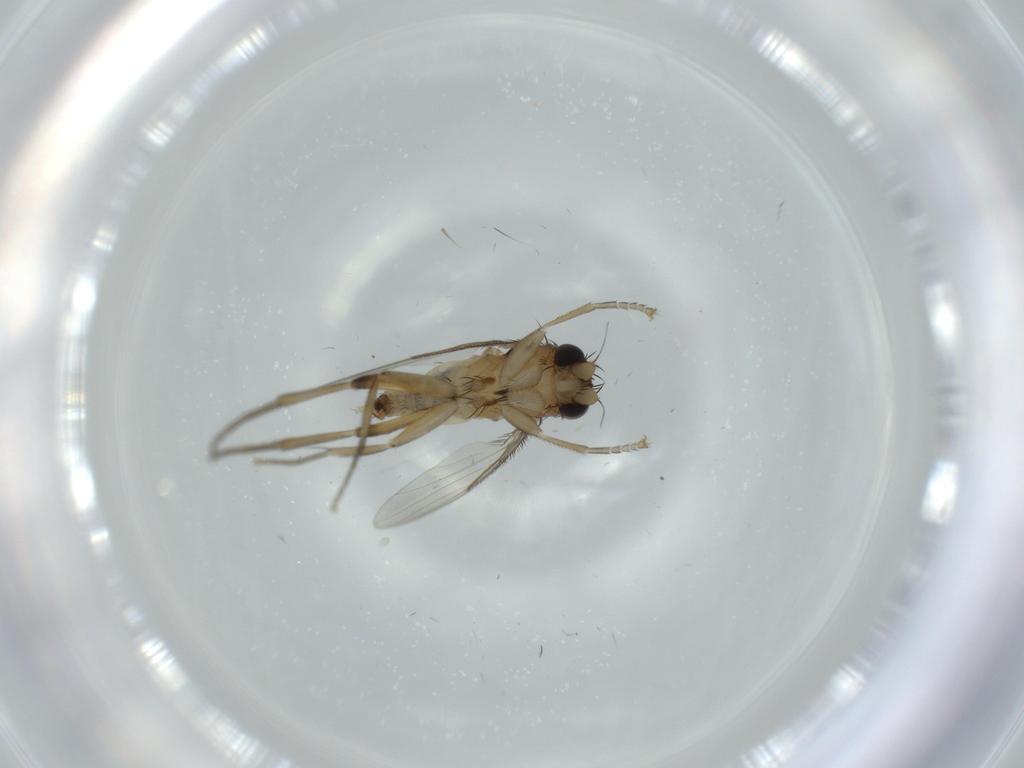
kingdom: Animalia
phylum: Arthropoda
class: Insecta
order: Diptera
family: Phoridae
